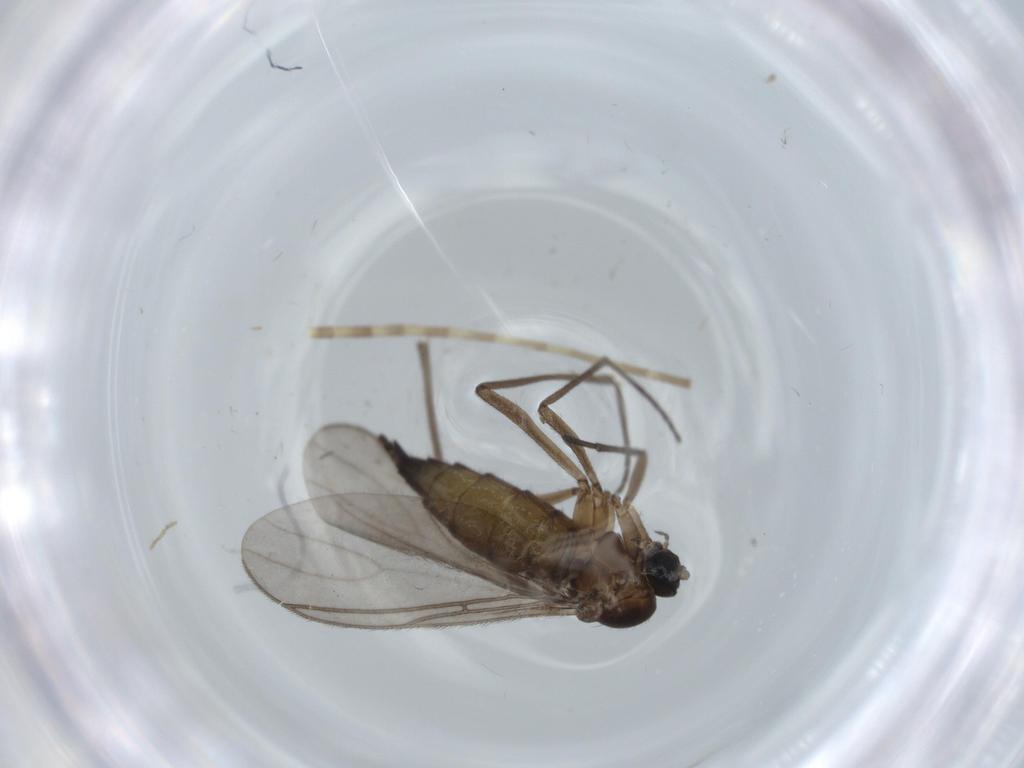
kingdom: Animalia
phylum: Arthropoda
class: Insecta
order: Diptera
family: Sciaridae
